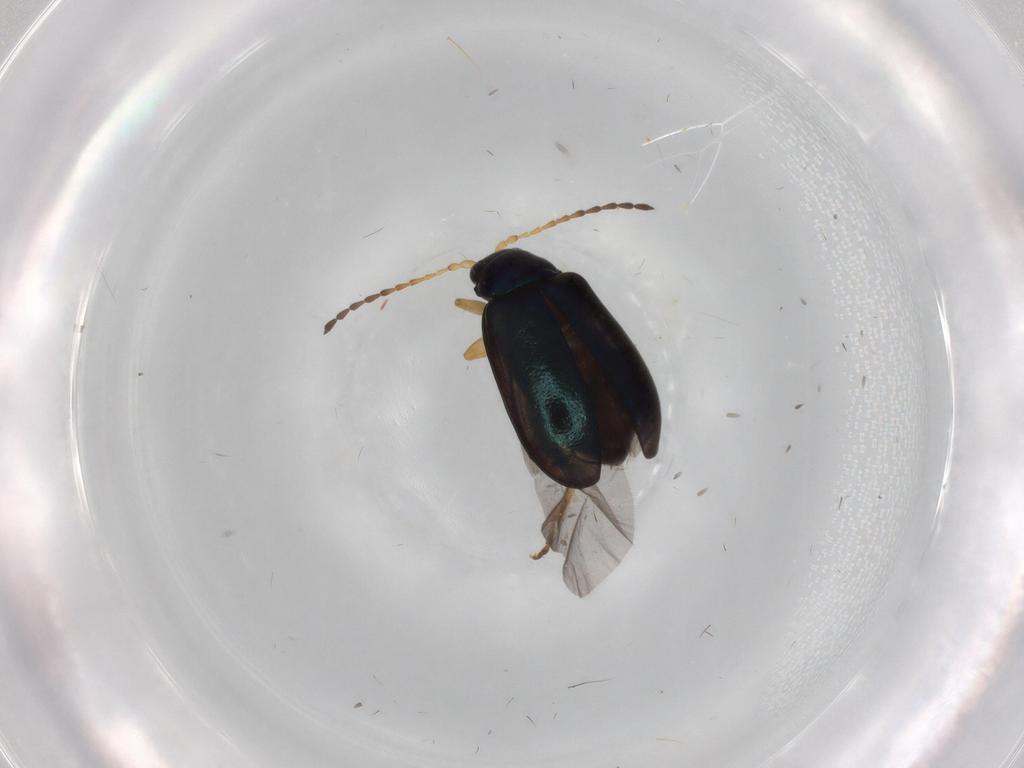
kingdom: Animalia
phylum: Arthropoda
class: Insecta
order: Coleoptera
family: Chrysomelidae
